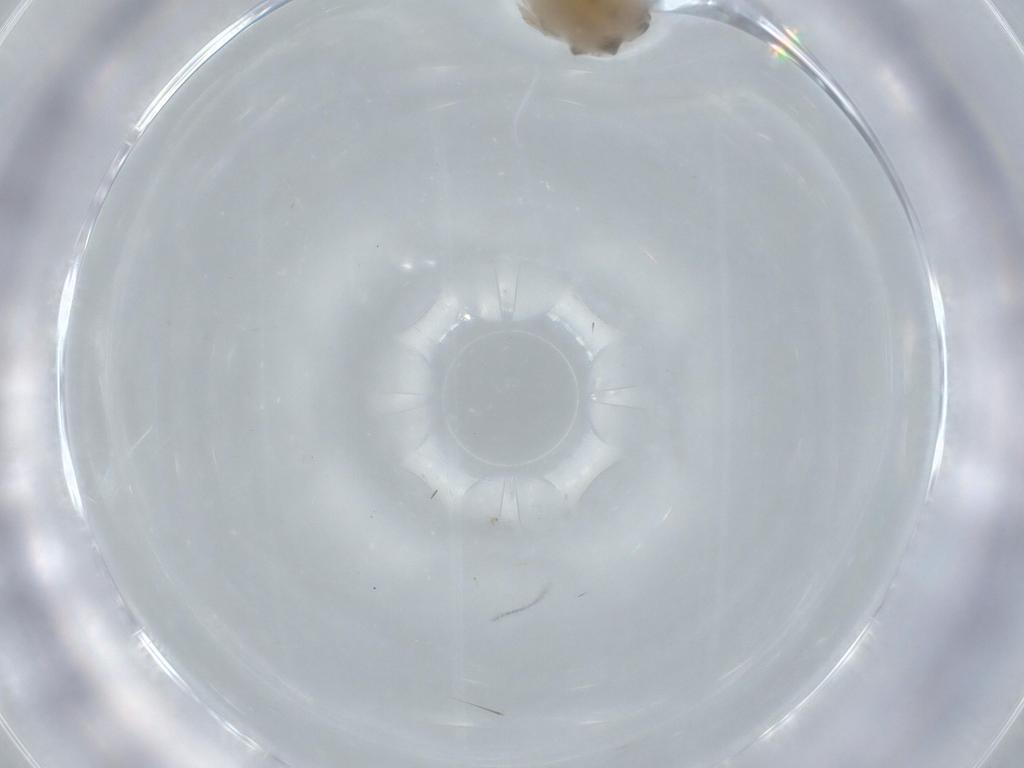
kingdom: Animalia
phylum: Arthropoda
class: Insecta
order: Psocodea
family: Caeciliusidae
